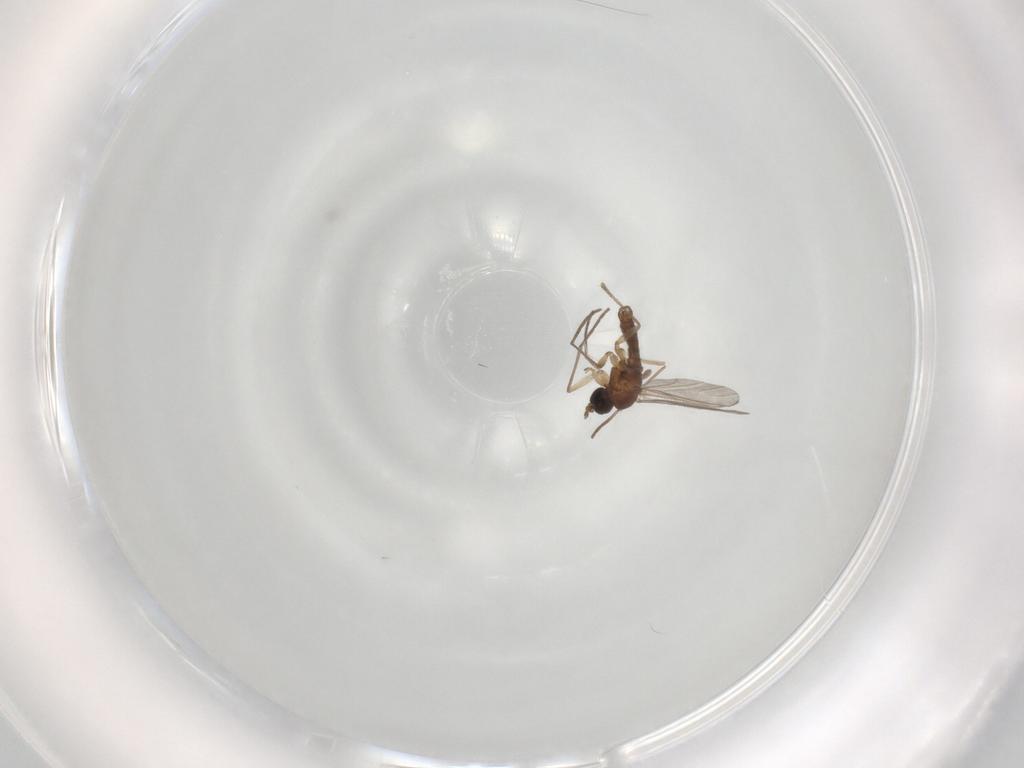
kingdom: Animalia
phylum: Arthropoda
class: Insecta
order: Diptera
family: Sciaridae
